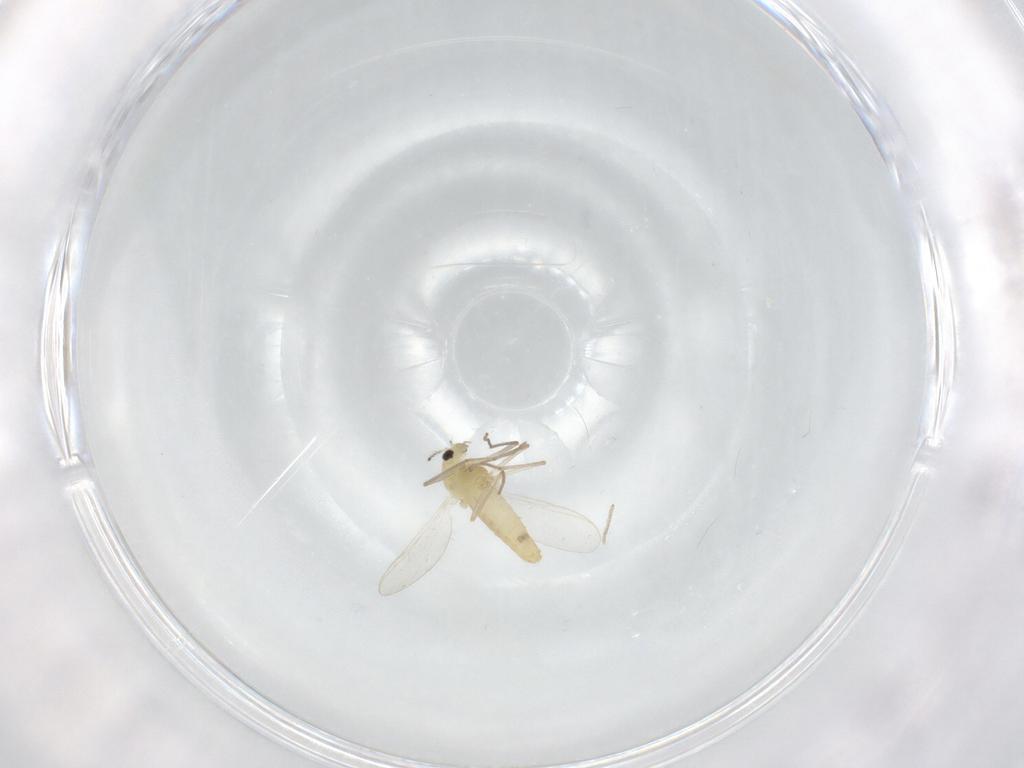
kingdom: Animalia
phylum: Arthropoda
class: Insecta
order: Diptera
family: Chironomidae
